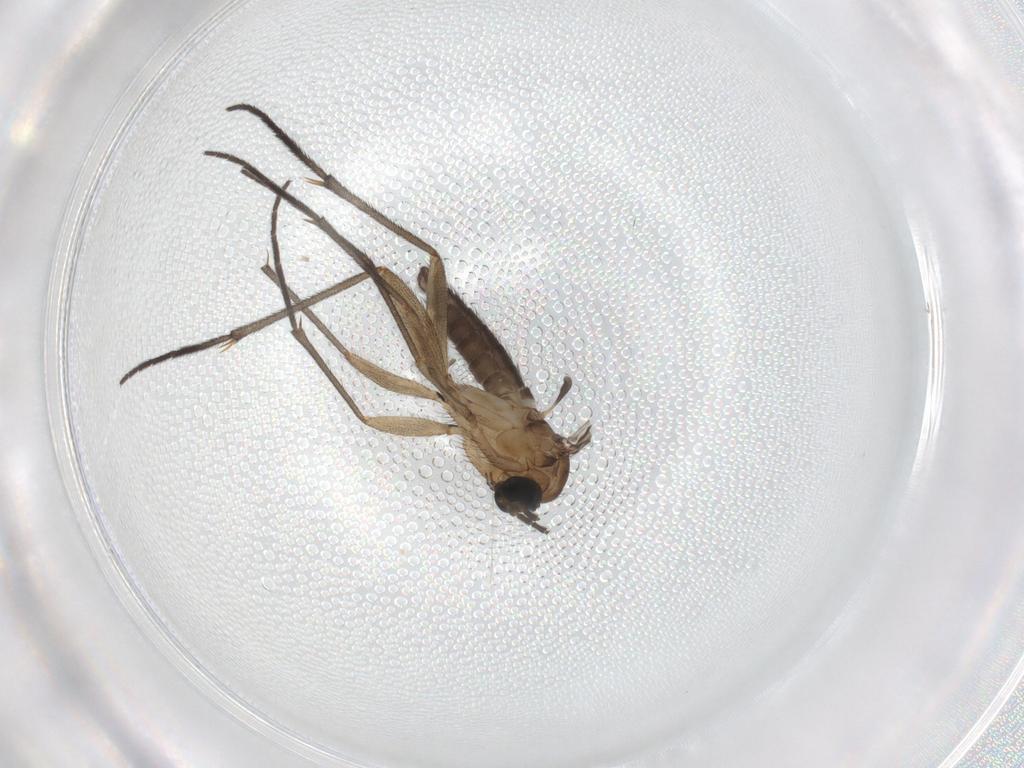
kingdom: Animalia
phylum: Arthropoda
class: Insecta
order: Diptera
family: Sciaridae
